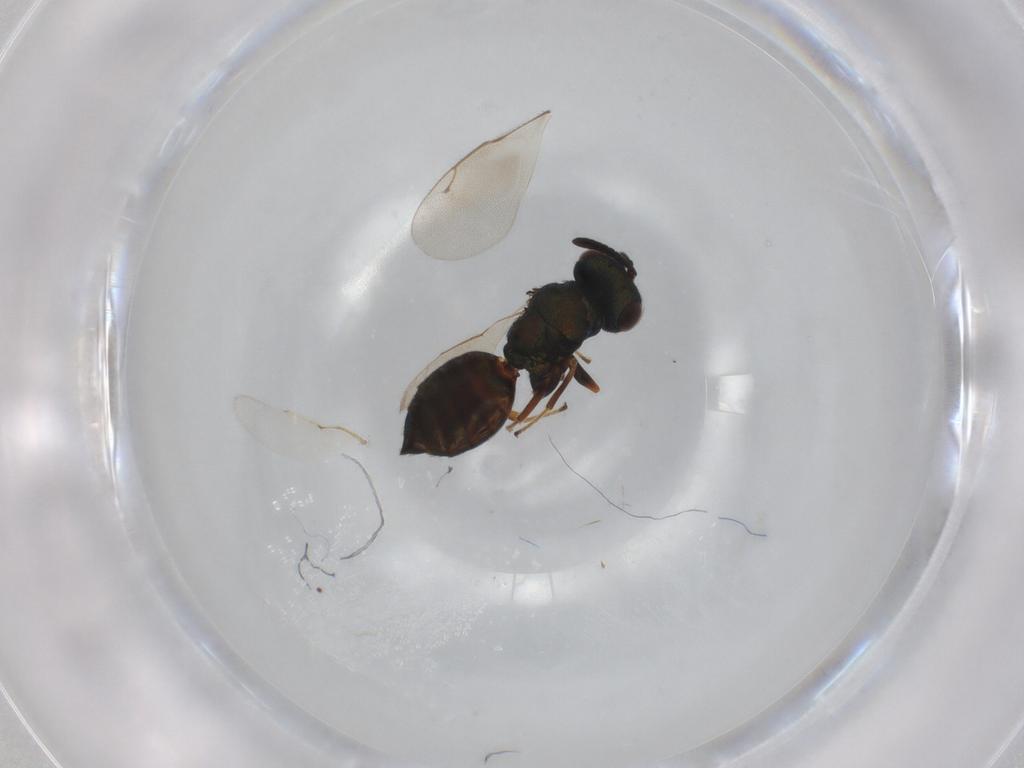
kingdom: Animalia
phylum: Arthropoda
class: Insecta
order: Hymenoptera
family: Pteromalidae
